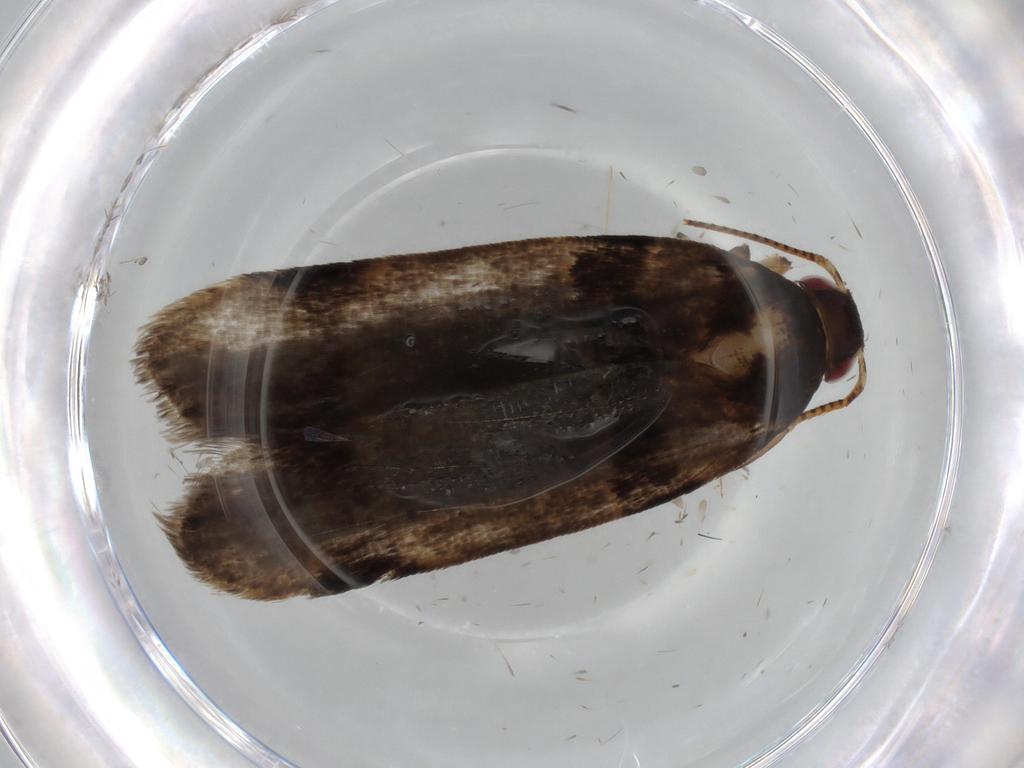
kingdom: Animalia
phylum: Arthropoda
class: Insecta
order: Lepidoptera
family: Elachistidae
